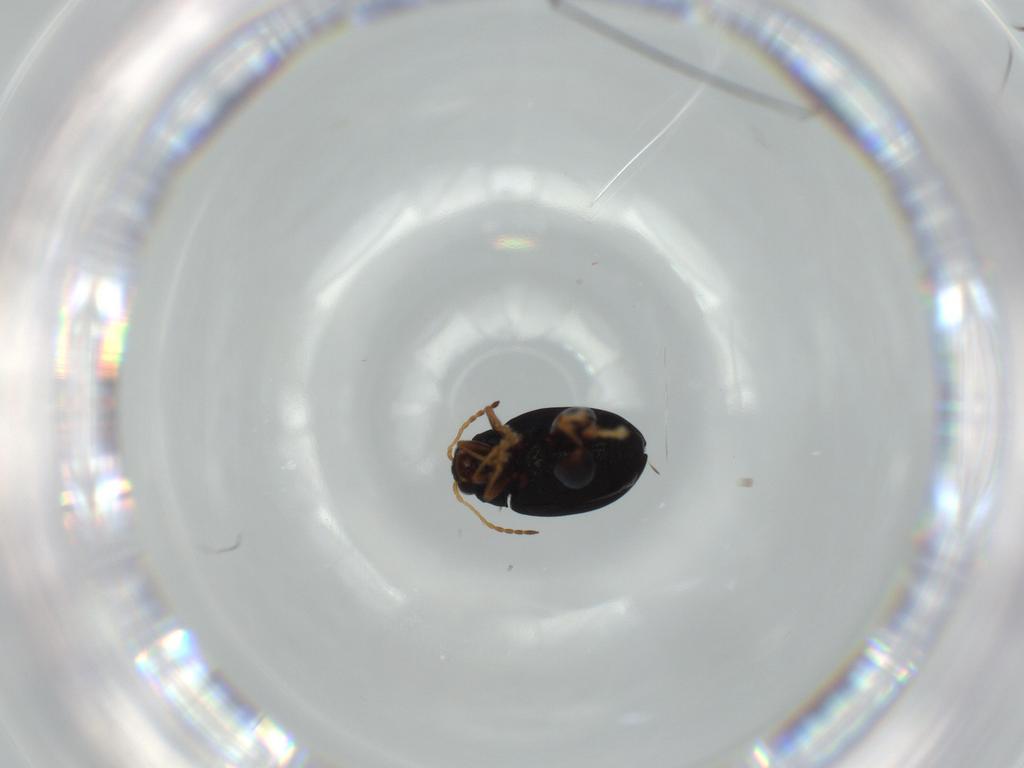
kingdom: Animalia
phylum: Arthropoda
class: Insecta
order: Coleoptera
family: Chrysomelidae
